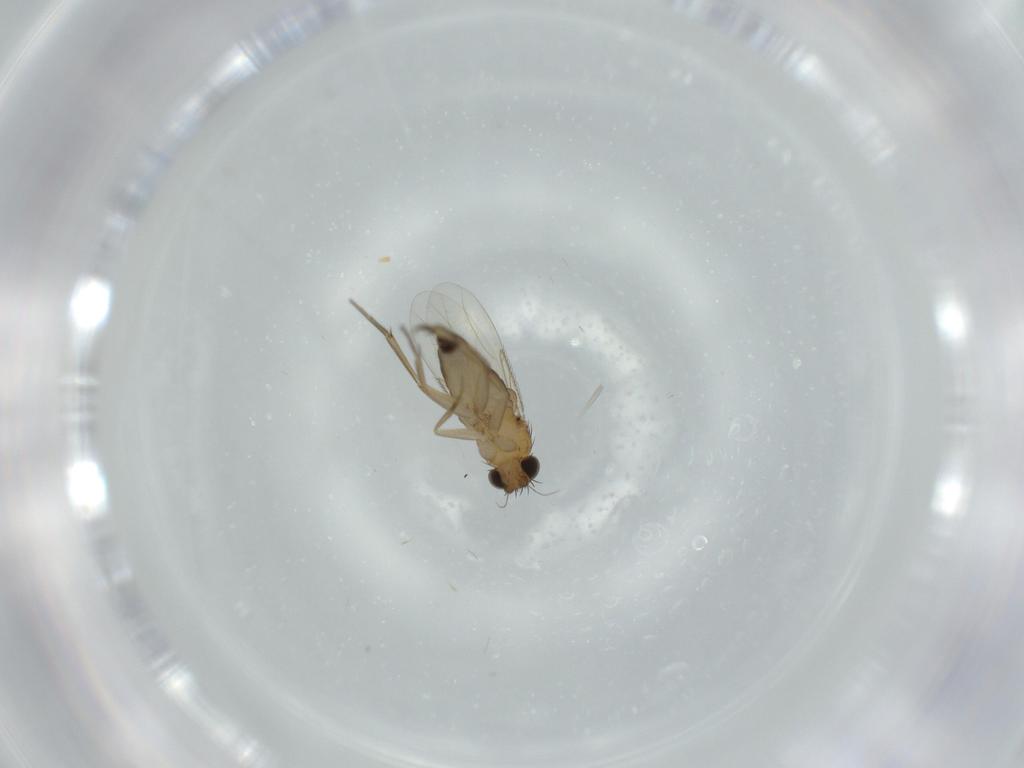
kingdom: Animalia
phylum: Arthropoda
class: Insecta
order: Diptera
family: Phoridae
